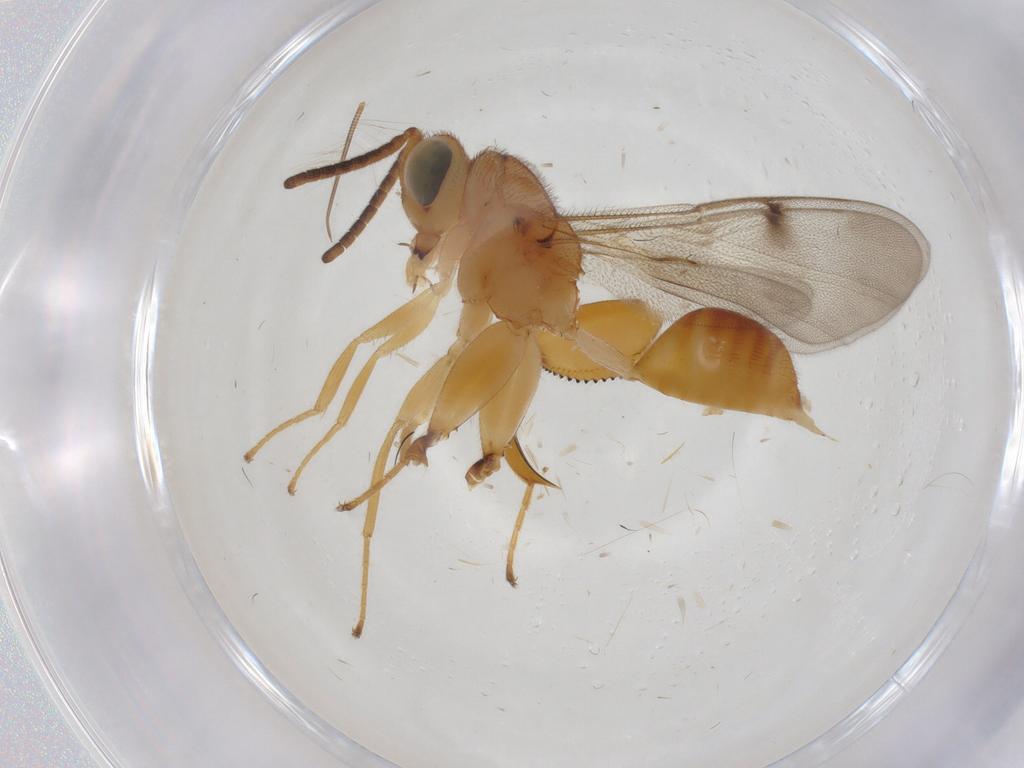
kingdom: Animalia
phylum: Arthropoda
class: Insecta
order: Hymenoptera
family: Chalcididae
